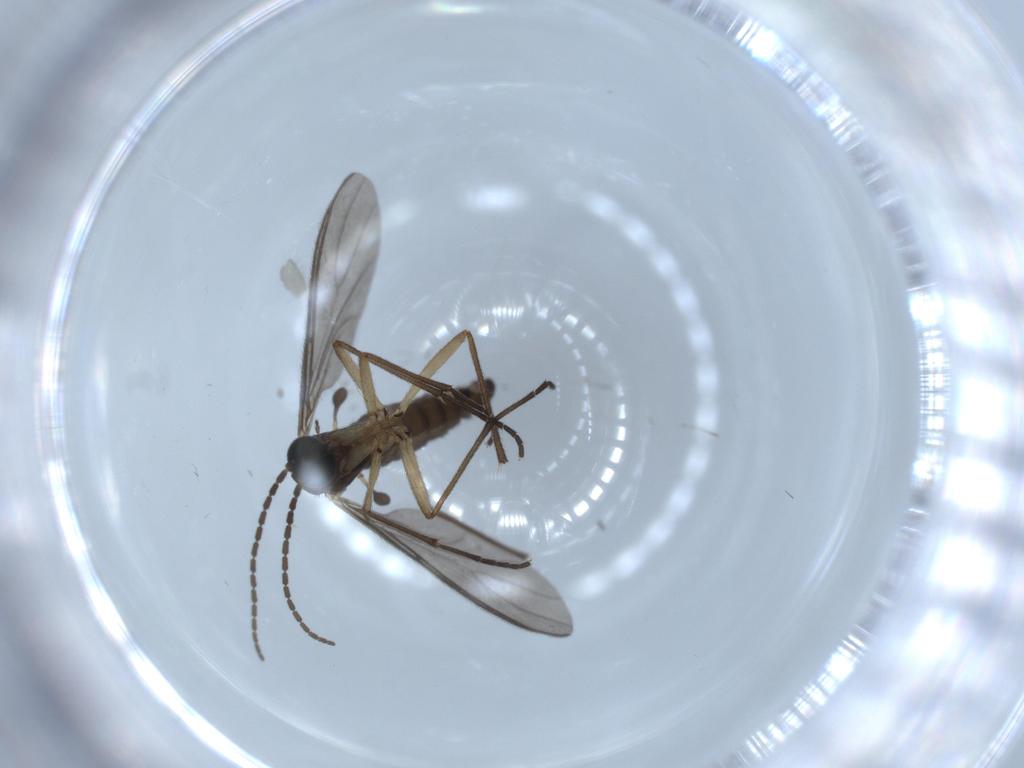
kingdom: Animalia
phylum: Arthropoda
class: Insecta
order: Diptera
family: Sciaridae
